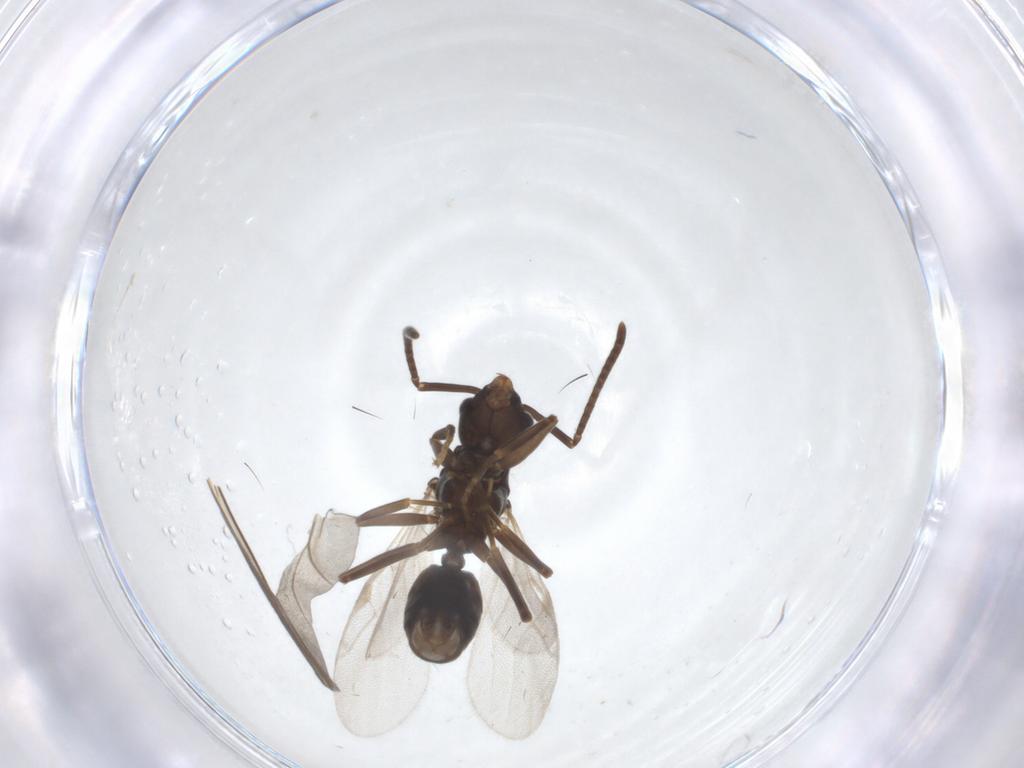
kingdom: Animalia
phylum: Arthropoda
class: Insecta
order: Hymenoptera
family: Formicidae
